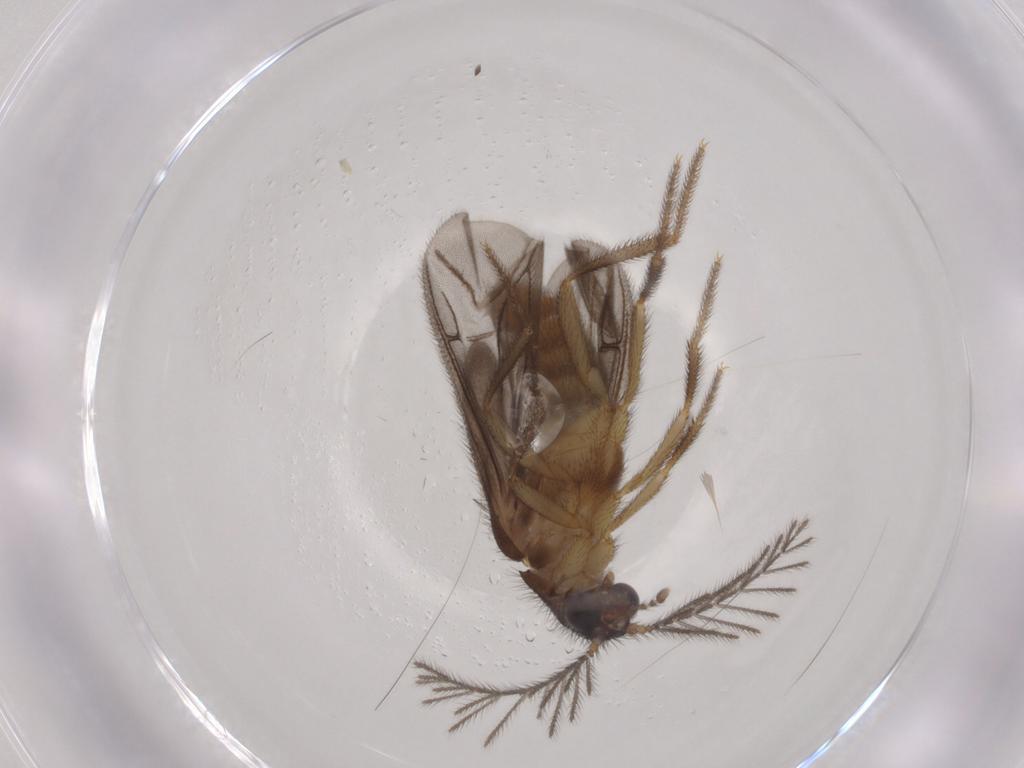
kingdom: Animalia
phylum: Arthropoda
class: Insecta
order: Coleoptera
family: Phengodidae
